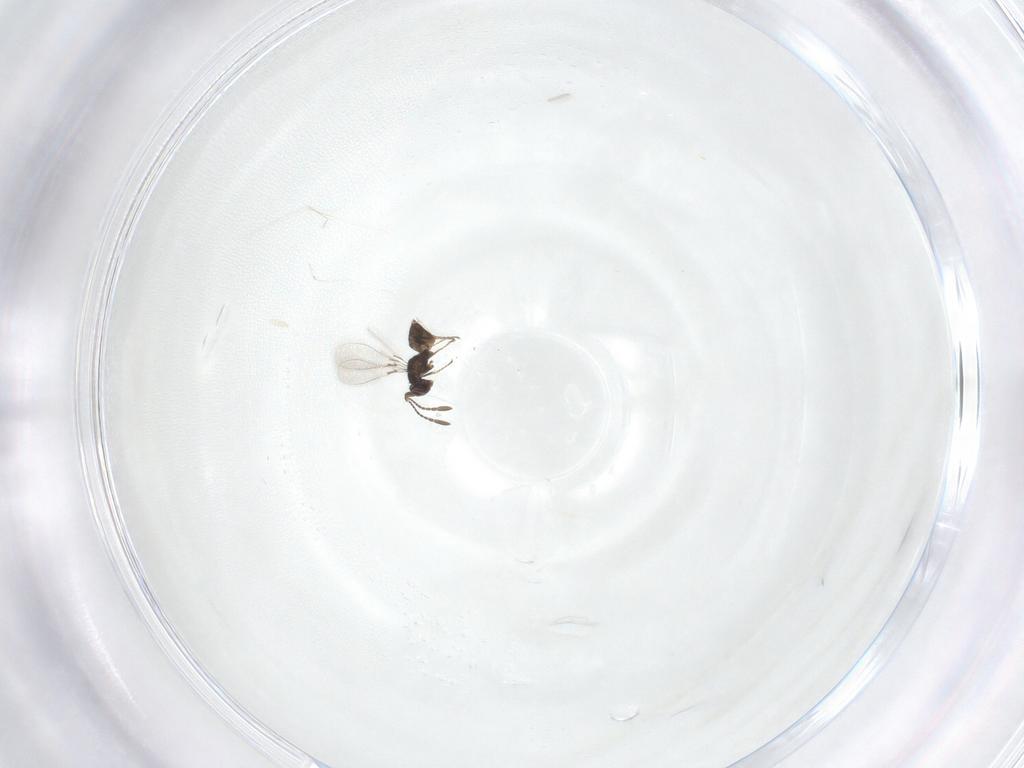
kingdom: Animalia
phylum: Arthropoda
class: Insecta
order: Hymenoptera
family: Mymaridae
